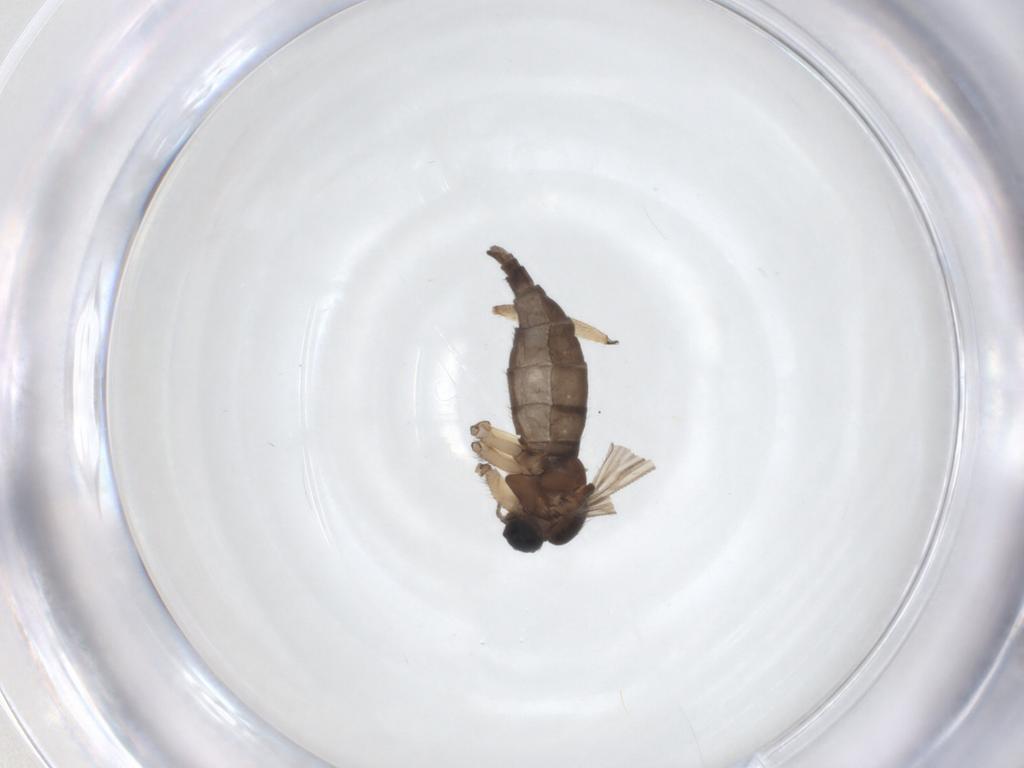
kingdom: Animalia
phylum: Arthropoda
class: Insecta
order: Diptera
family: Sciaridae
